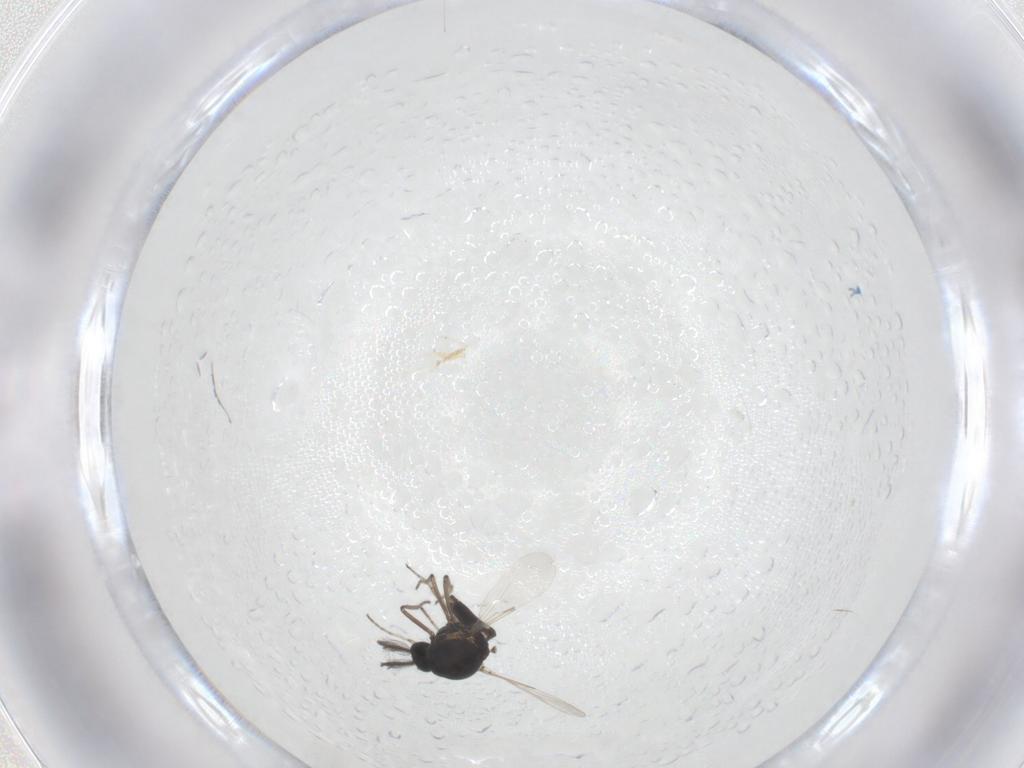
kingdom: Animalia
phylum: Arthropoda
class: Insecta
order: Diptera
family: Ceratopogonidae
